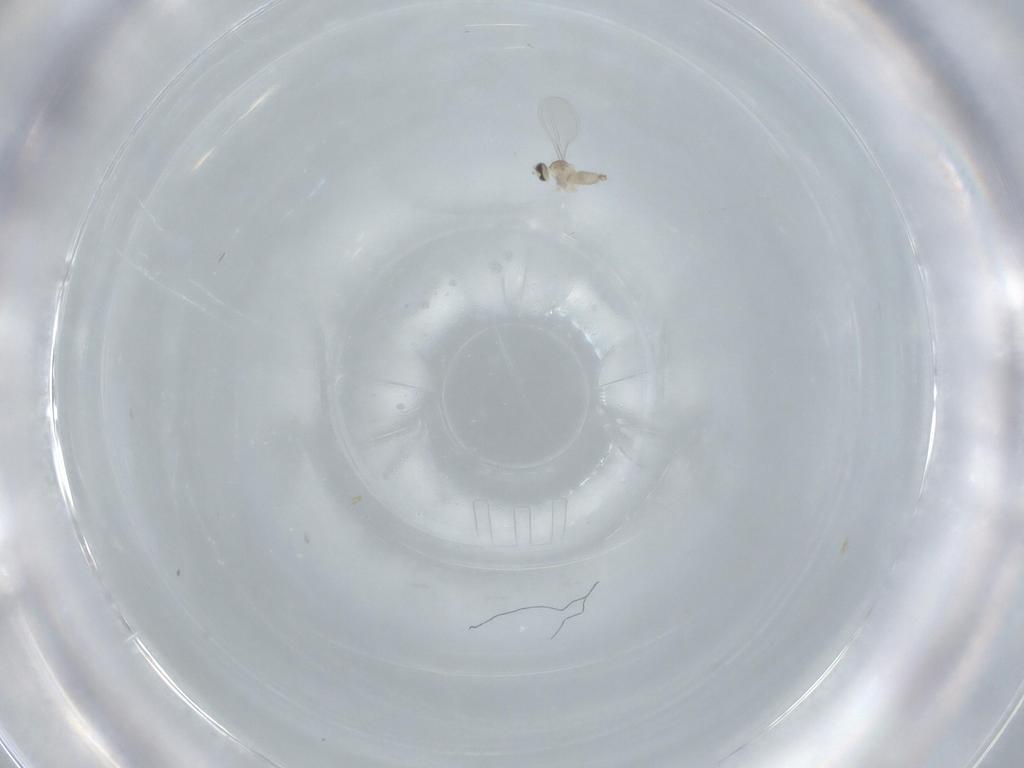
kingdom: Animalia
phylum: Arthropoda
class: Insecta
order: Diptera
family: Cecidomyiidae
